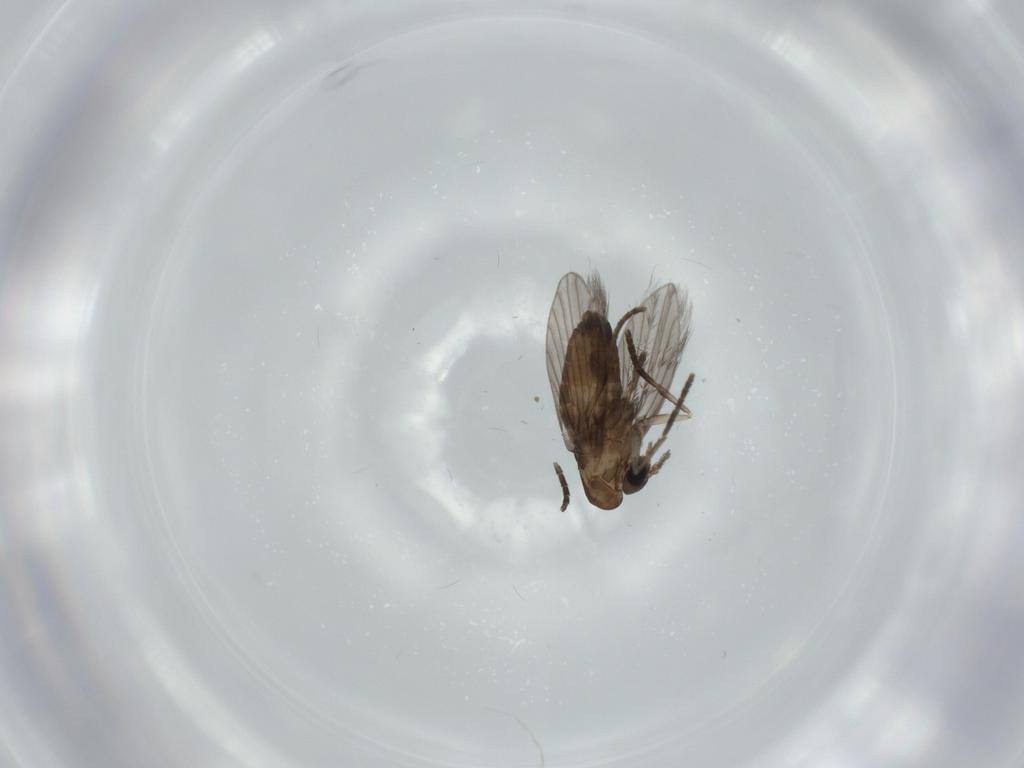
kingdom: Animalia
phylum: Arthropoda
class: Insecta
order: Diptera
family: Psychodidae
